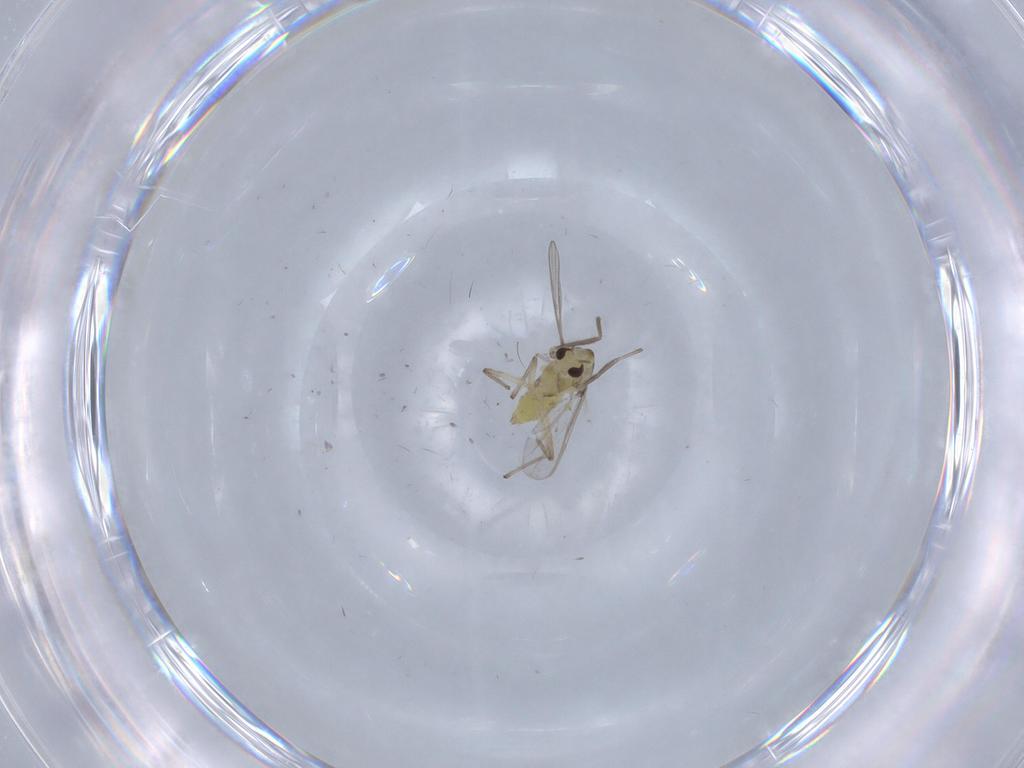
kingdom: Animalia
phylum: Arthropoda
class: Insecta
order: Diptera
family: Chironomidae
